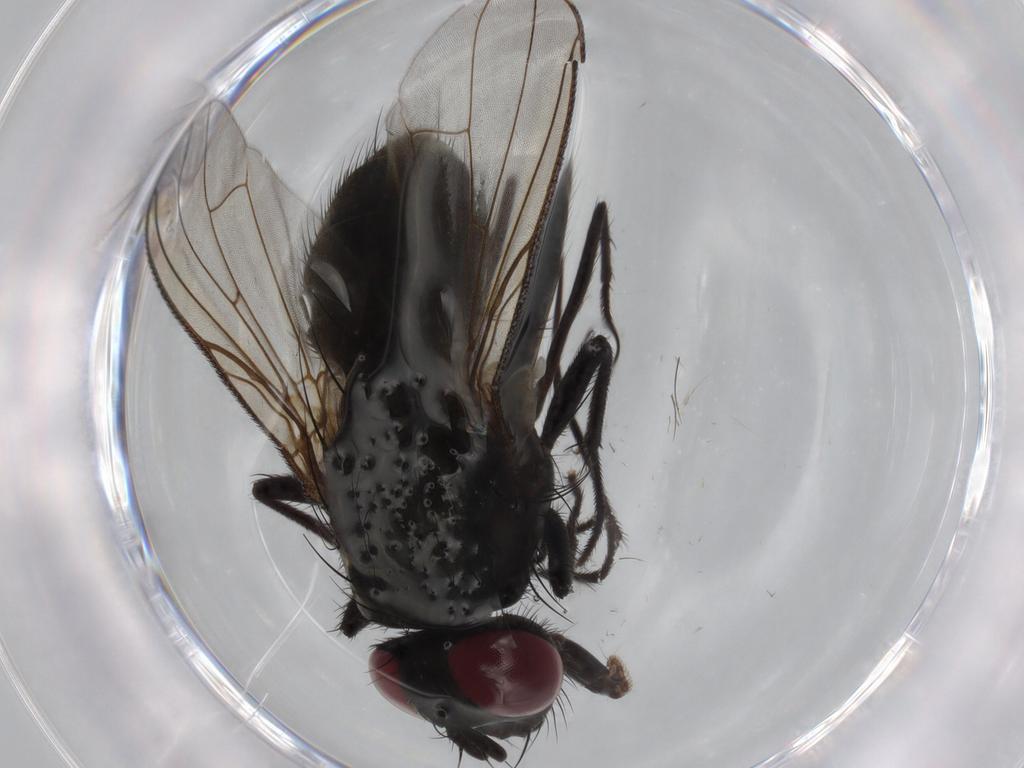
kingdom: Animalia
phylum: Arthropoda
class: Insecta
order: Diptera
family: Muscidae
